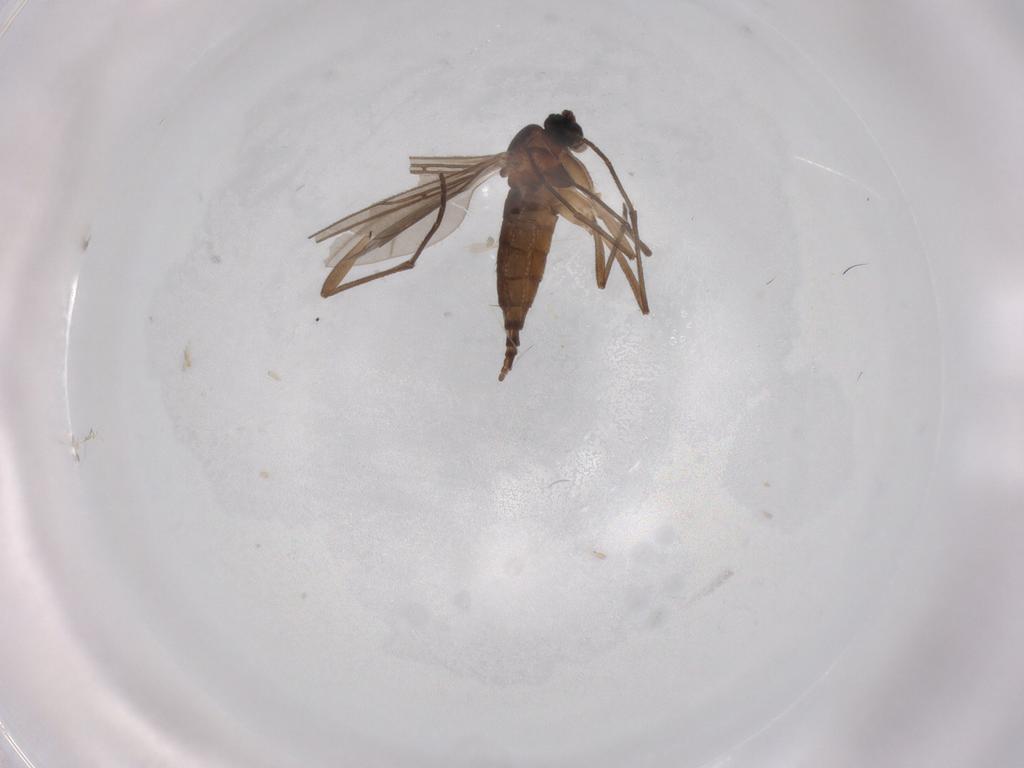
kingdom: Animalia
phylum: Arthropoda
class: Insecta
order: Diptera
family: Sciaridae
